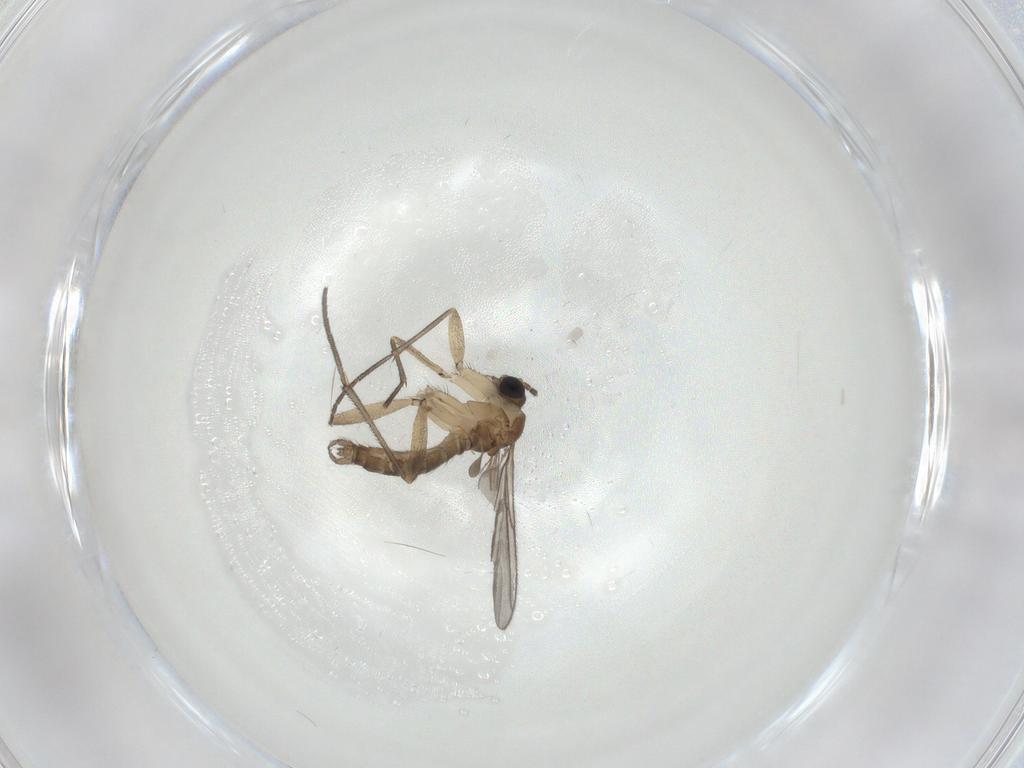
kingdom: Animalia
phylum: Arthropoda
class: Insecta
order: Diptera
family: Sciaridae
